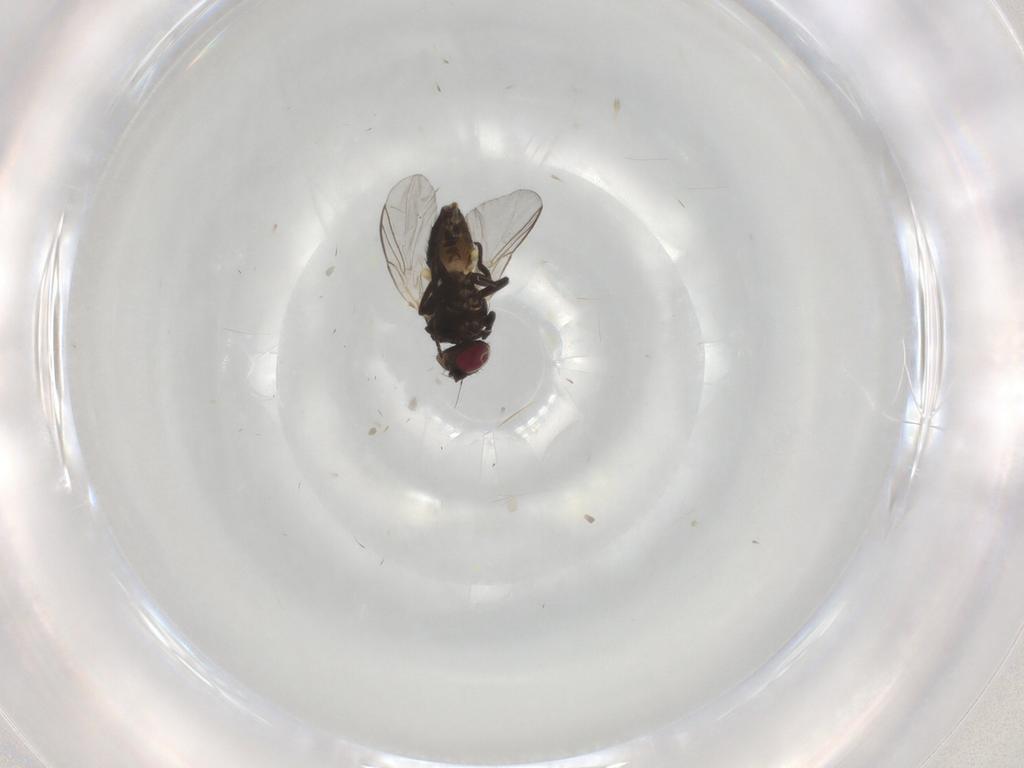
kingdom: Animalia
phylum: Arthropoda
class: Insecta
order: Diptera
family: Agromyzidae
